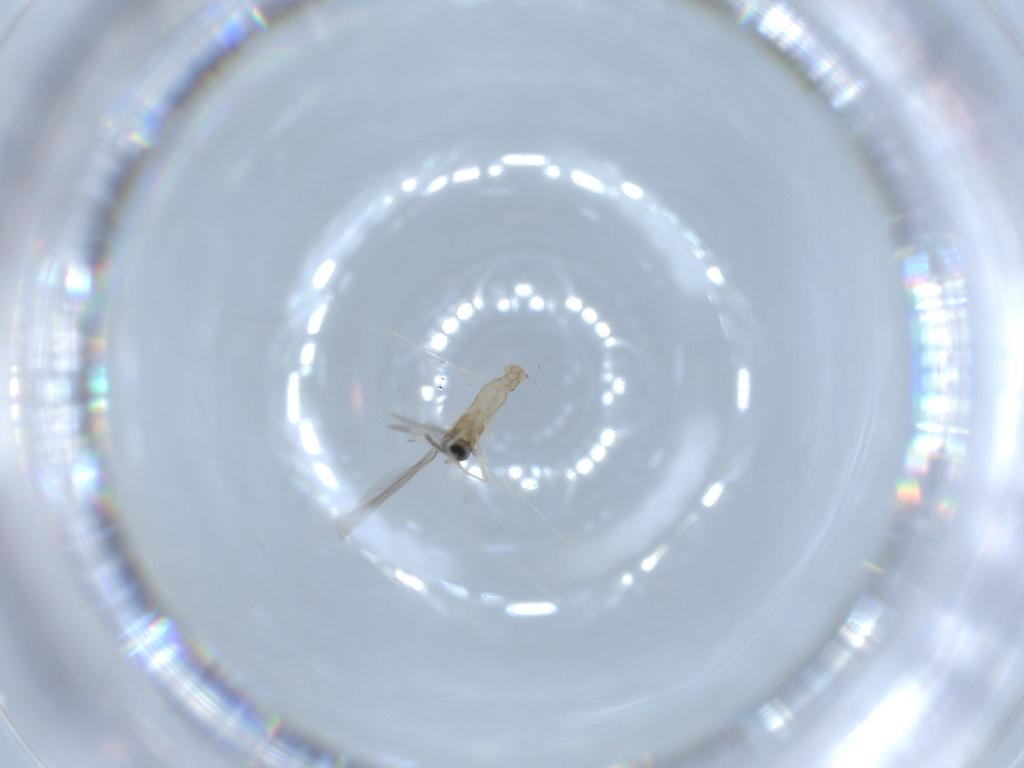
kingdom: Animalia
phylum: Arthropoda
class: Insecta
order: Diptera
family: Cecidomyiidae
